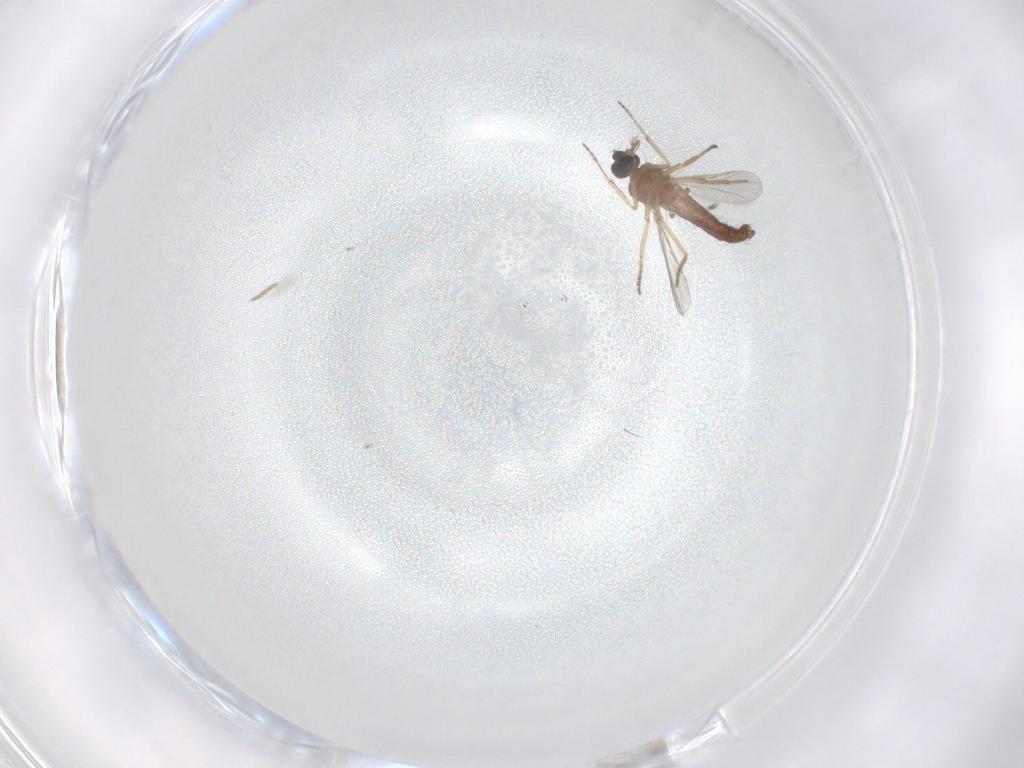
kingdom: Animalia
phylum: Arthropoda
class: Insecta
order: Diptera
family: Ceratopogonidae
